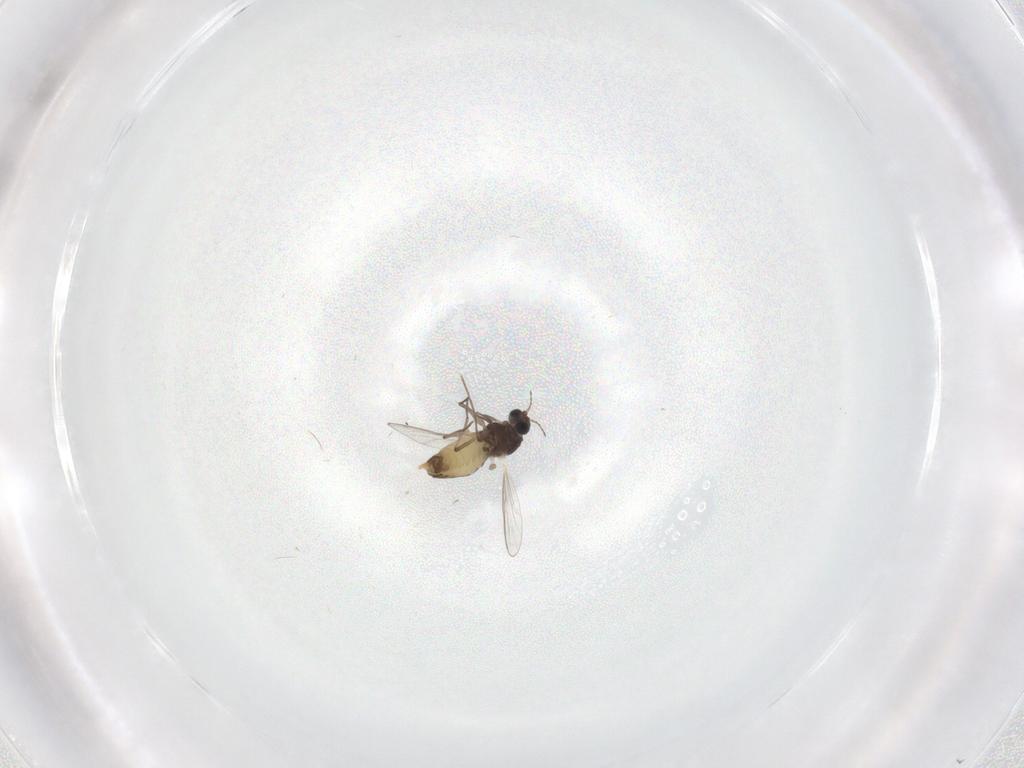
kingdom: Animalia
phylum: Arthropoda
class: Insecta
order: Diptera
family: Chironomidae
